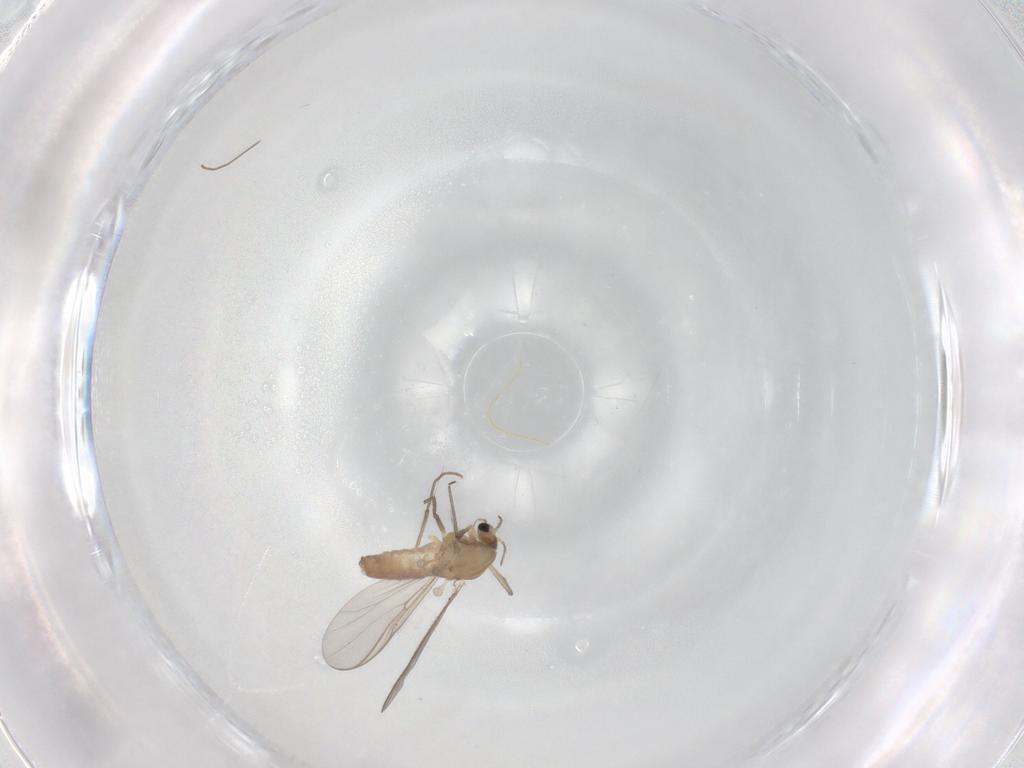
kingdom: Animalia
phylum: Arthropoda
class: Insecta
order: Diptera
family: Chironomidae
